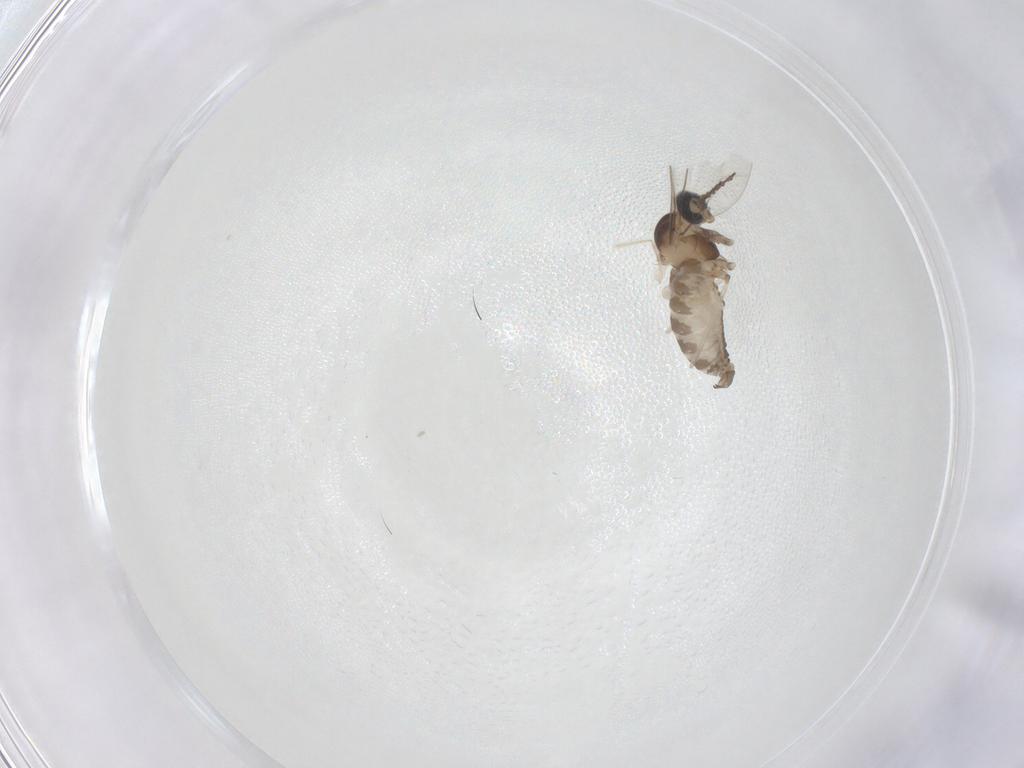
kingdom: Animalia
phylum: Arthropoda
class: Insecta
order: Diptera
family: Cecidomyiidae
